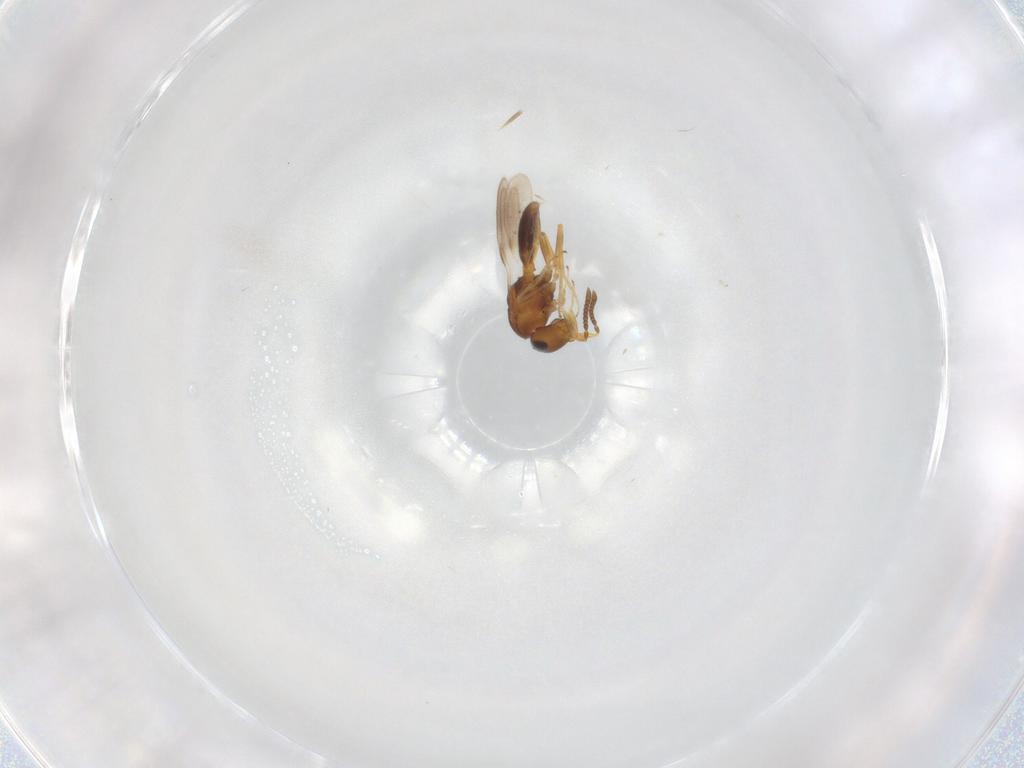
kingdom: Animalia
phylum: Arthropoda
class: Insecta
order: Hymenoptera
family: Scelionidae
